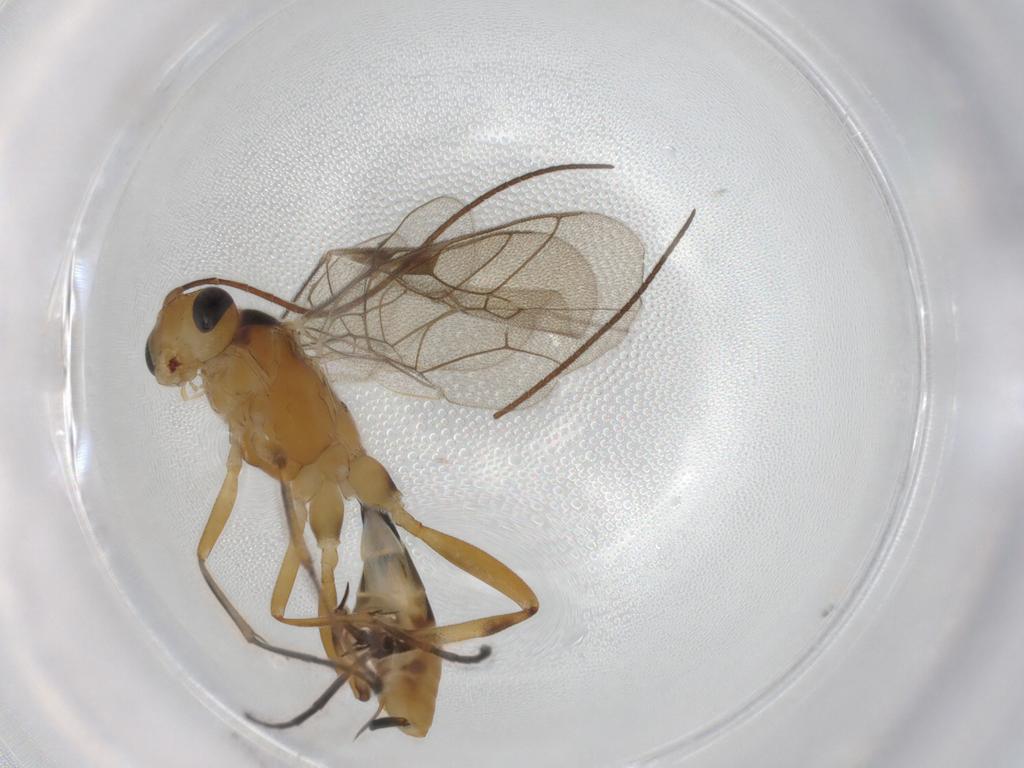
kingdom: Animalia
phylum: Arthropoda
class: Insecta
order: Hymenoptera
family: Ichneumonidae
